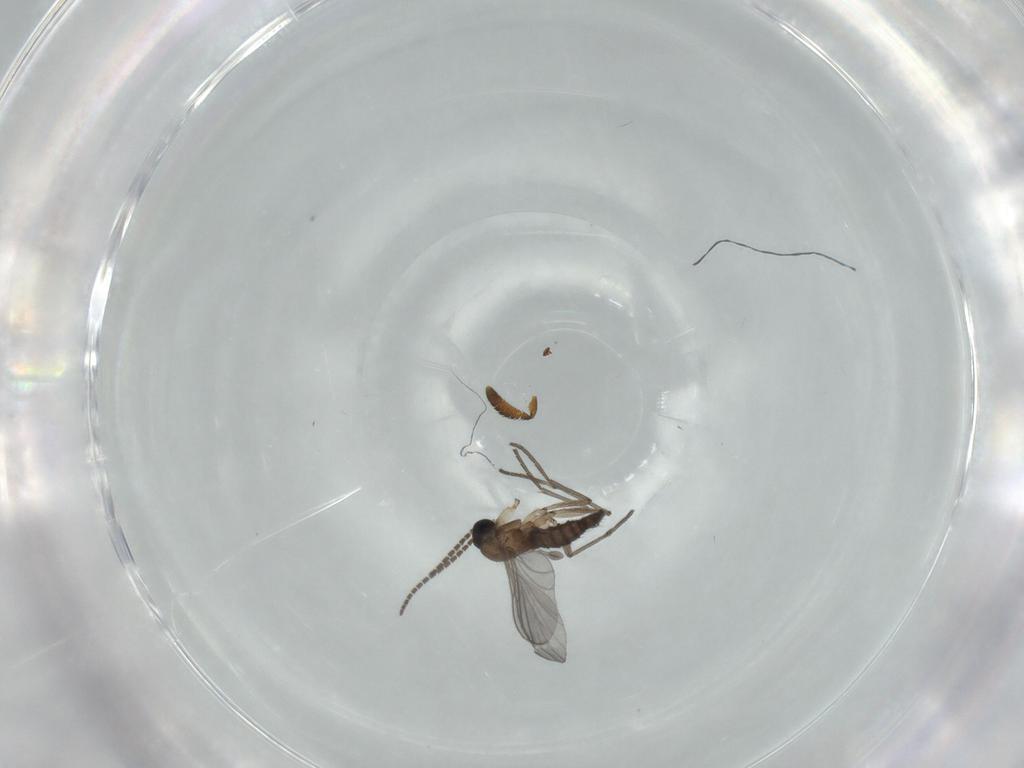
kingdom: Animalia
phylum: Arthropoda
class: Insecta
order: Diptera
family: Sciaridae
